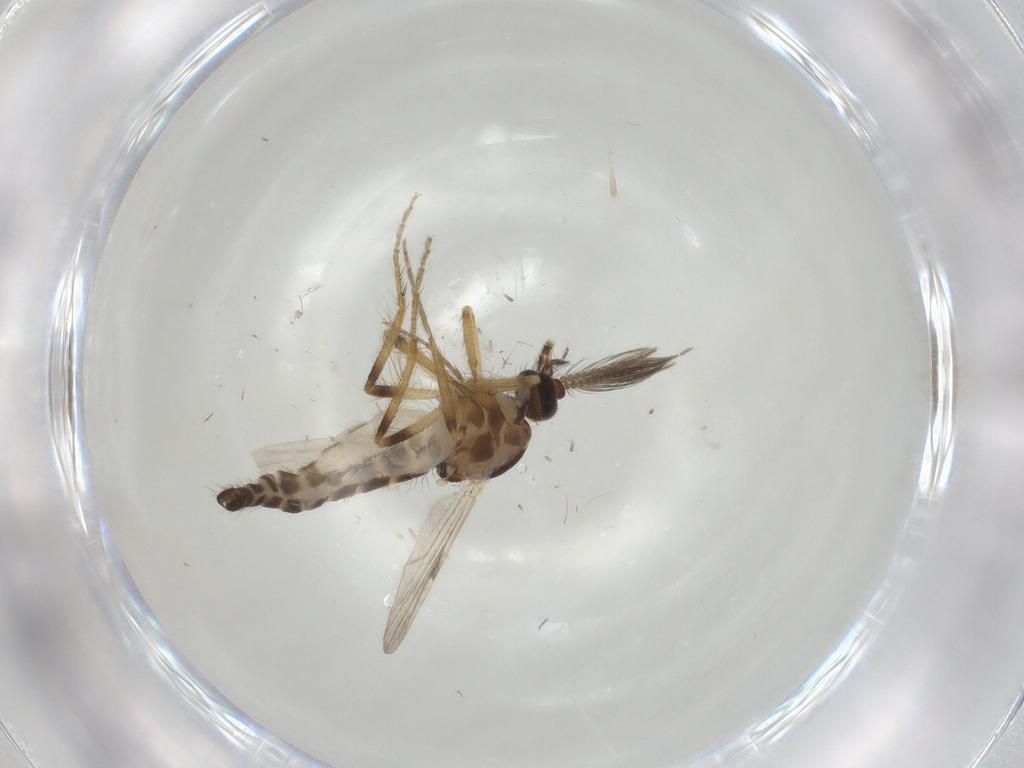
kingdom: Animalia
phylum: Arthropoda
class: Insecta
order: Diptera
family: Ceratopogonidae
